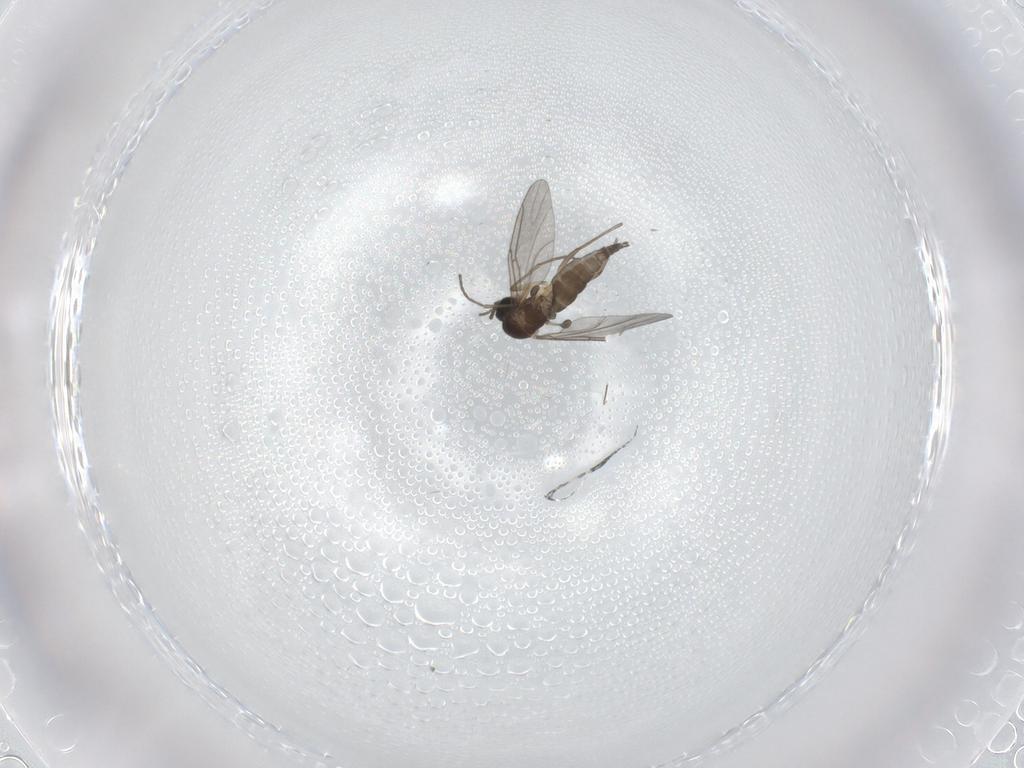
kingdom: Animalia
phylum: Arthropoda
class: Insecta
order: Diptera
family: Sciaridae
